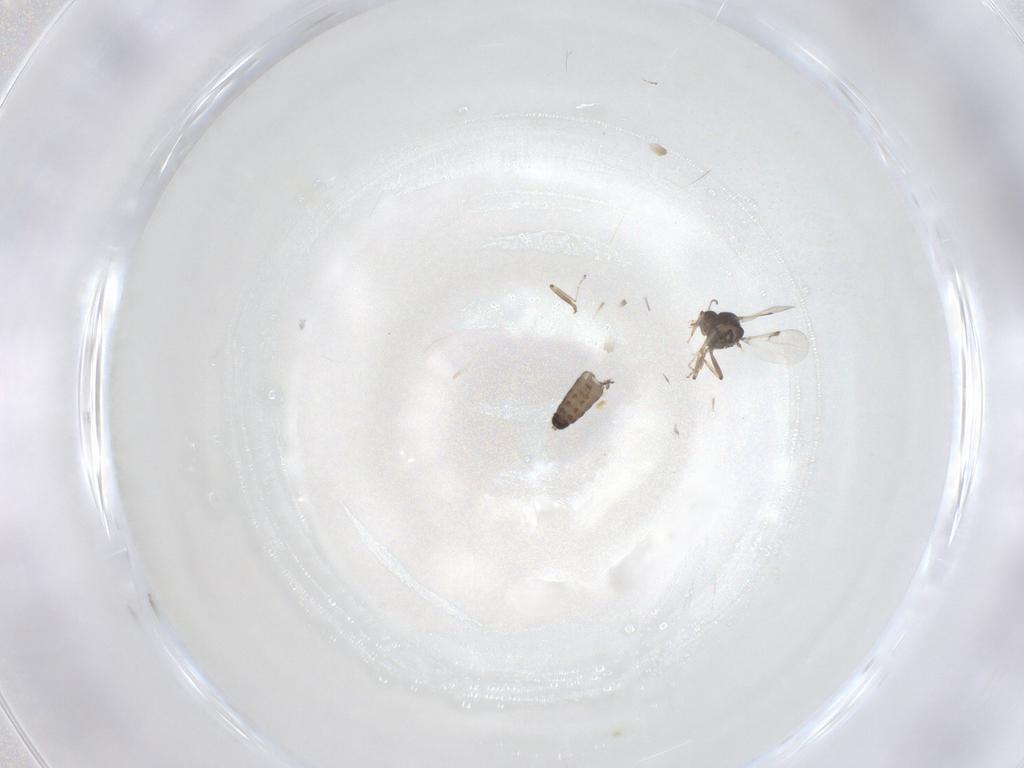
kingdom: Animalia
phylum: Arthropoda
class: Insecta
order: Diptera
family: Ceratopogonidae
